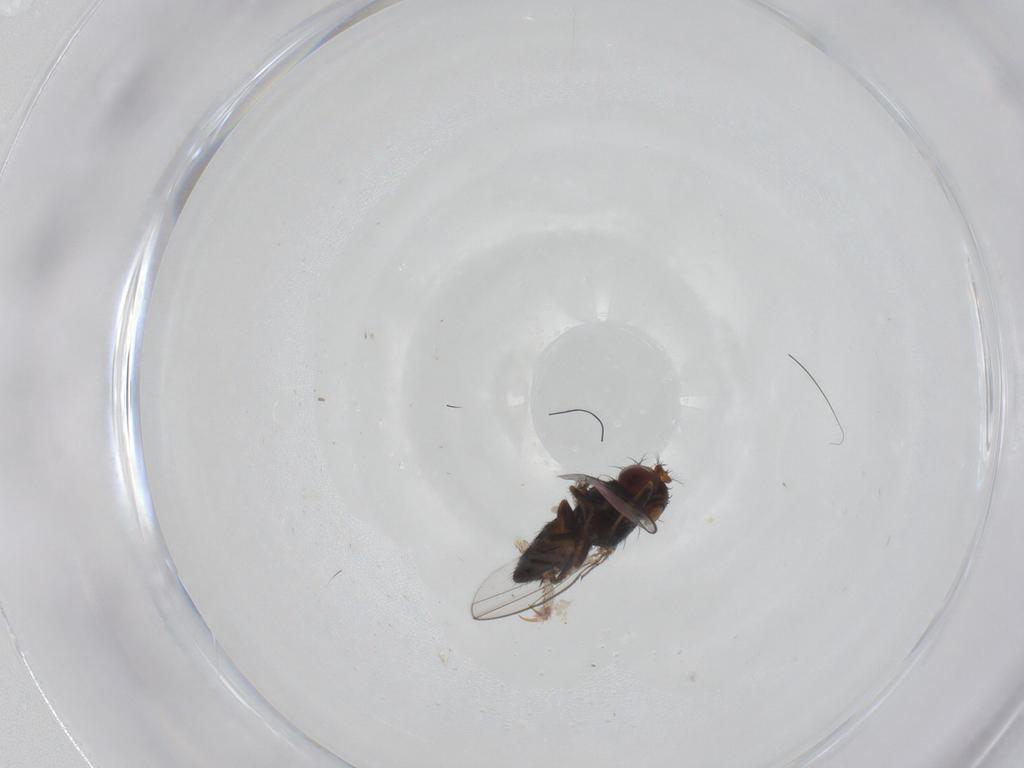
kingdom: Animalia
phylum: Arthropoda
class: Insecta
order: Diptera
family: Ephydridae
